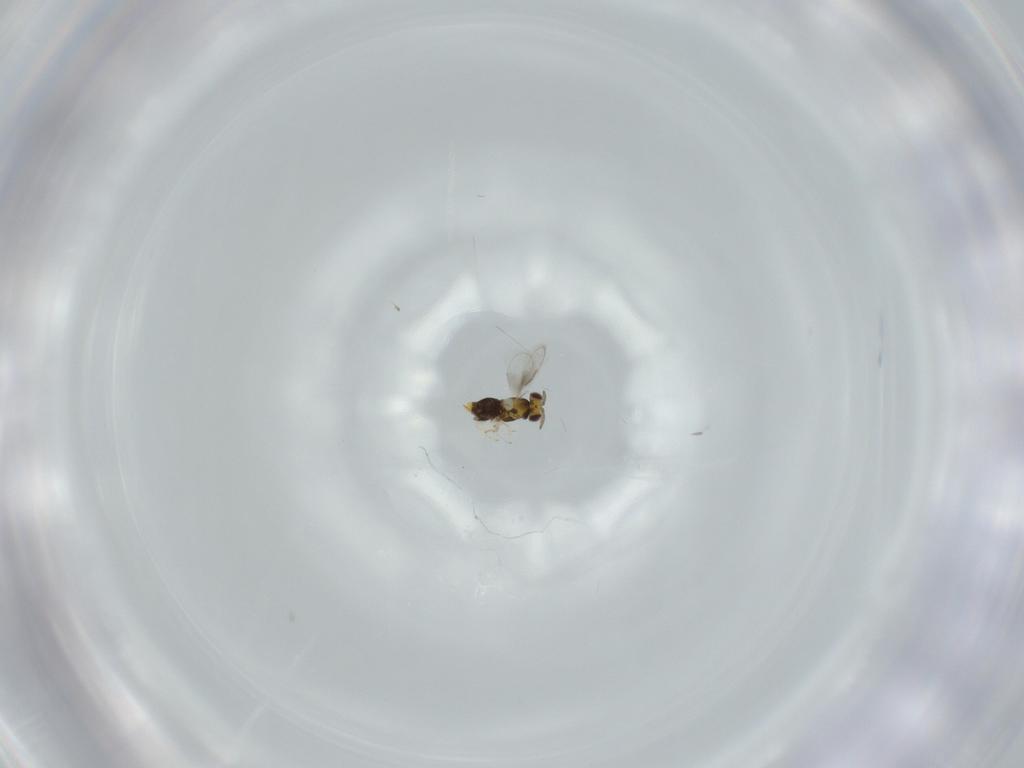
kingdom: Animalia
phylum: Arthropoda
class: Insecta
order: Hymenoptera
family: Aphelinidae
